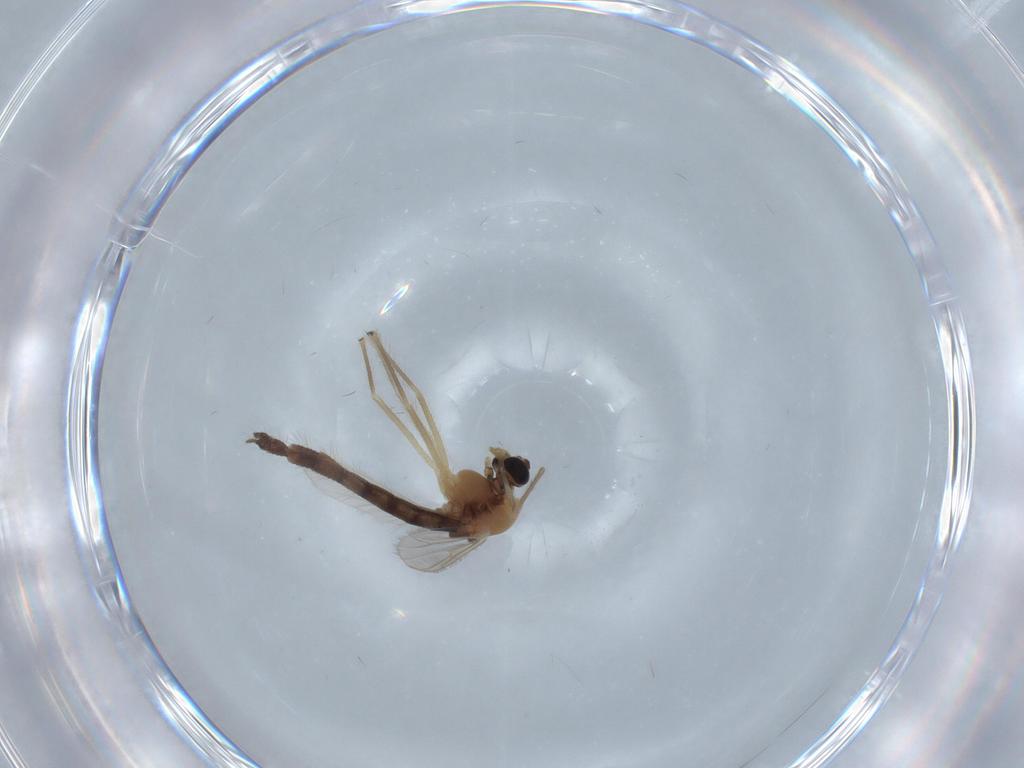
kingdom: Animalia
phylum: Arthropoda
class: Insecta
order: Diptera
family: Chironomidae
